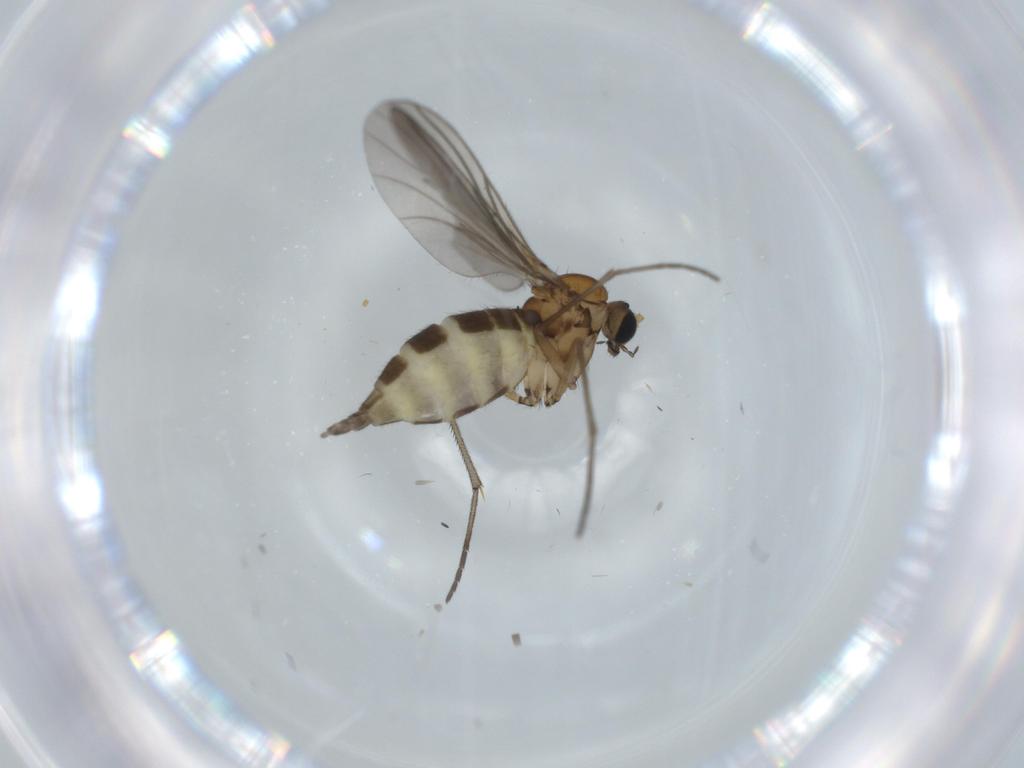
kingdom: Animalia
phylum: Arthropoda
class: Insecta
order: Diptera
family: Sciaridae
